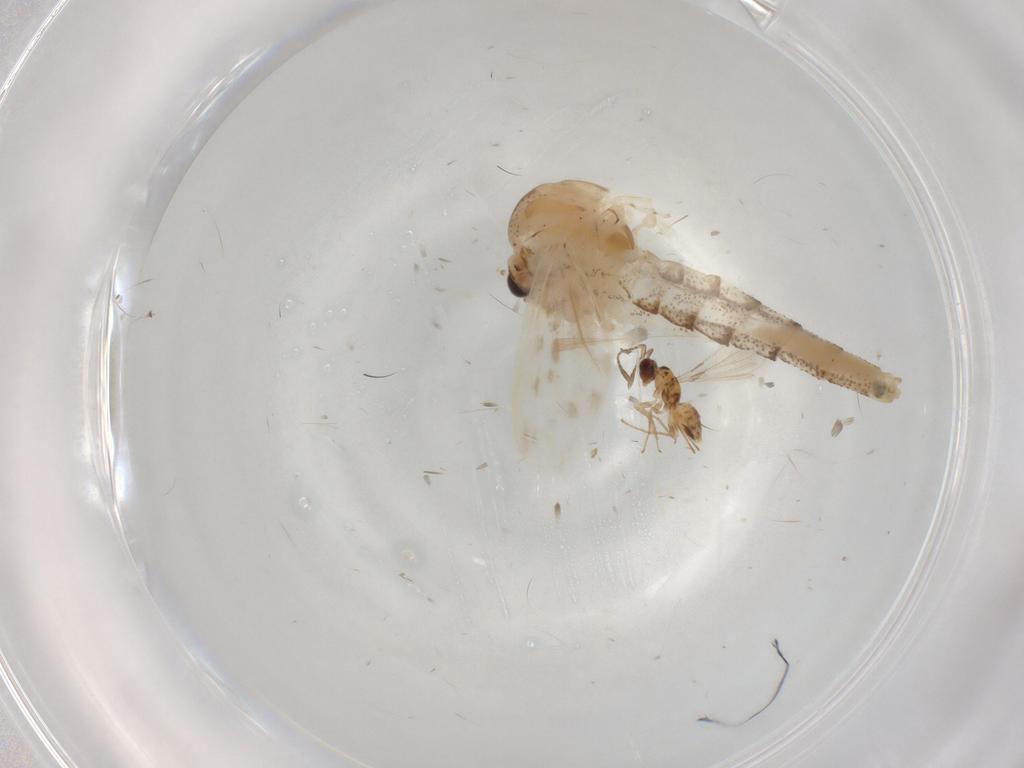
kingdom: Animalia
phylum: Arthropoda
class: Insecta
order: Diptera
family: Chaoboridae
